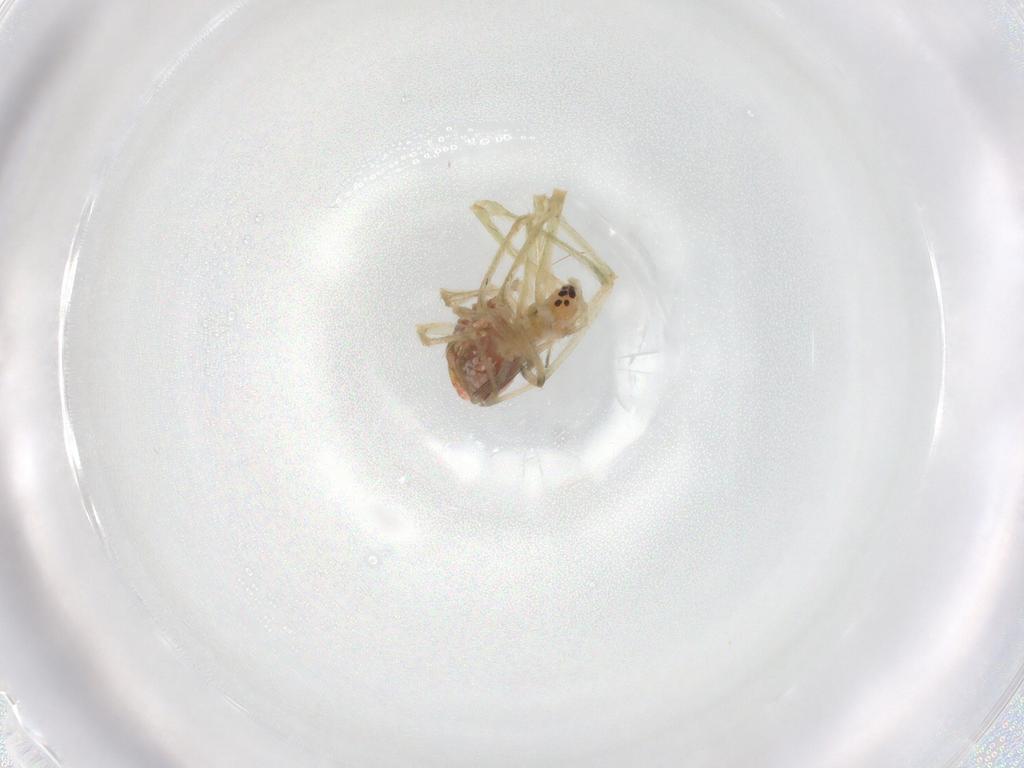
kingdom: Animalia
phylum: Arthropoda
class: Arachnida
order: Araneae
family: Tetragnathidae
